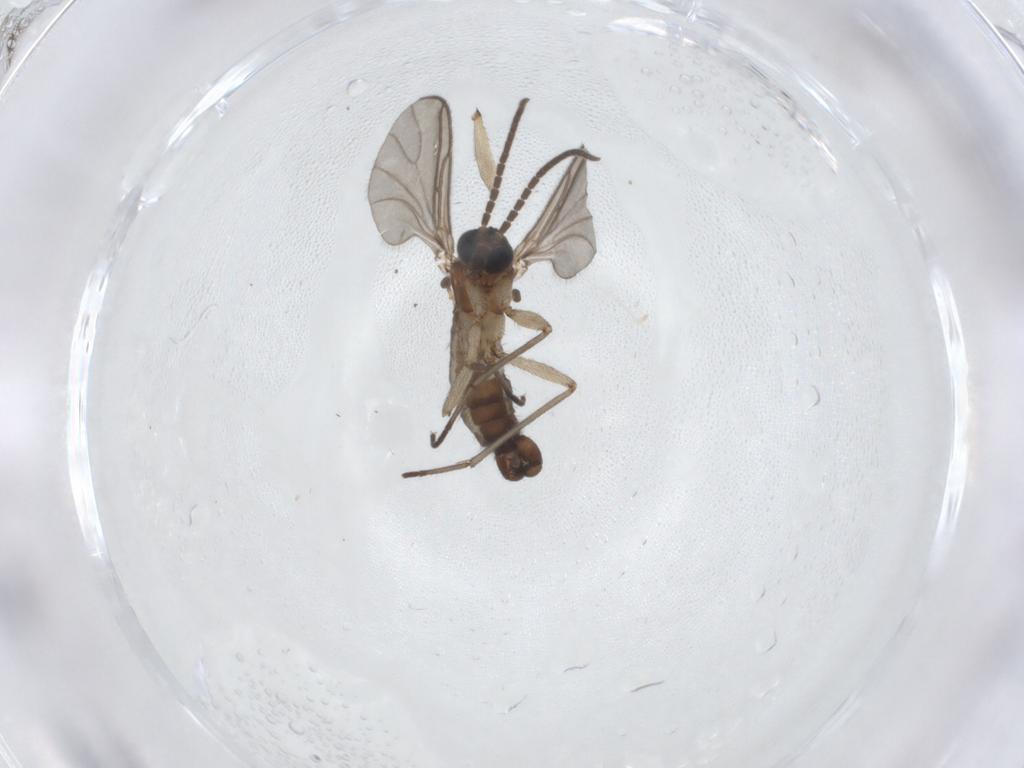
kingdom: Animalia
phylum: Arthropoda
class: Insecta
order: Diptera
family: Sciaridae
